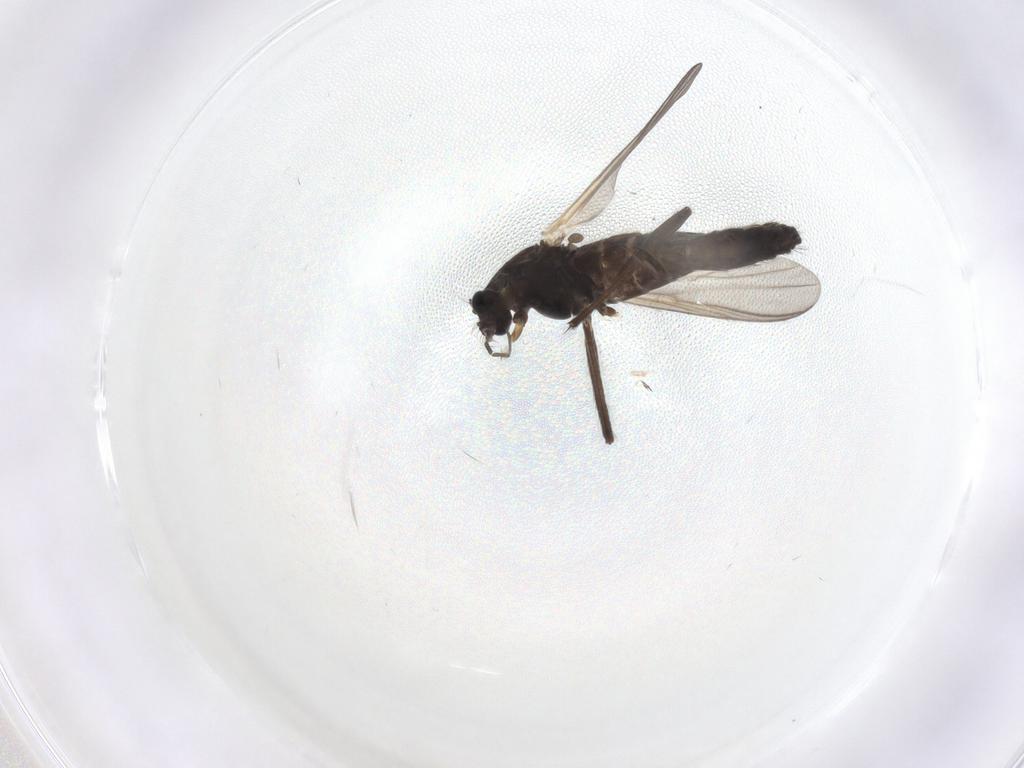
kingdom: Animalia
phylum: Arthropoda
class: Insecta
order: Diptera
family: Chironomidae
